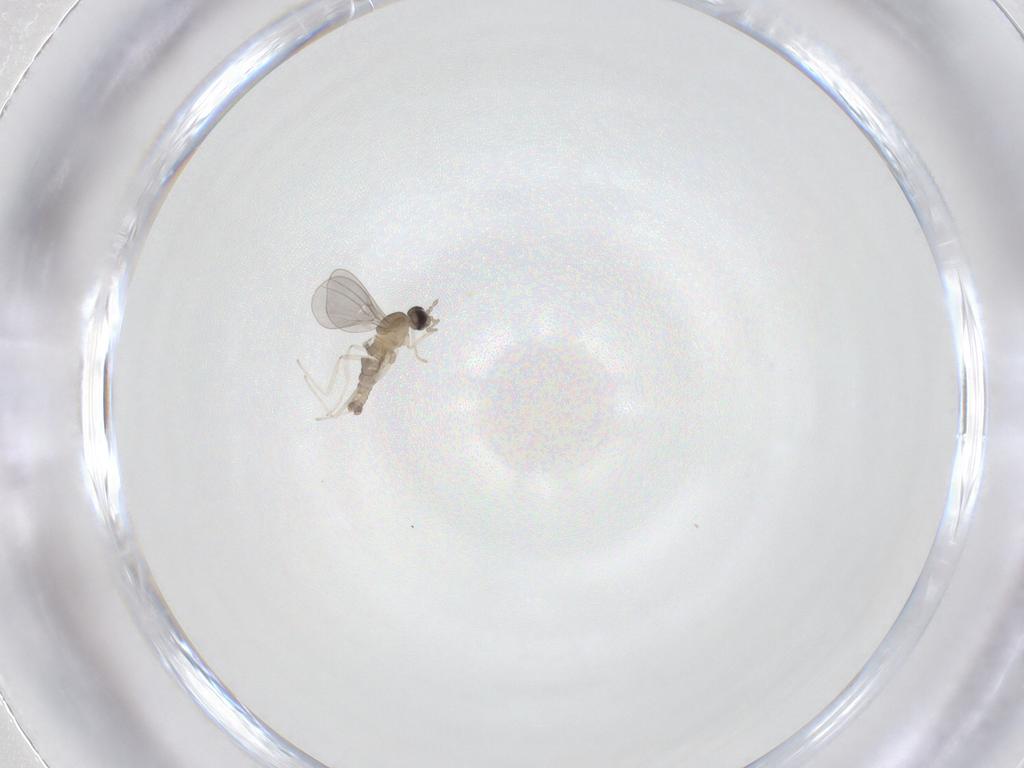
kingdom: Animalia
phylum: Arthropoda
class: Insecta
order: Diptera
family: Cecidomyiidae
